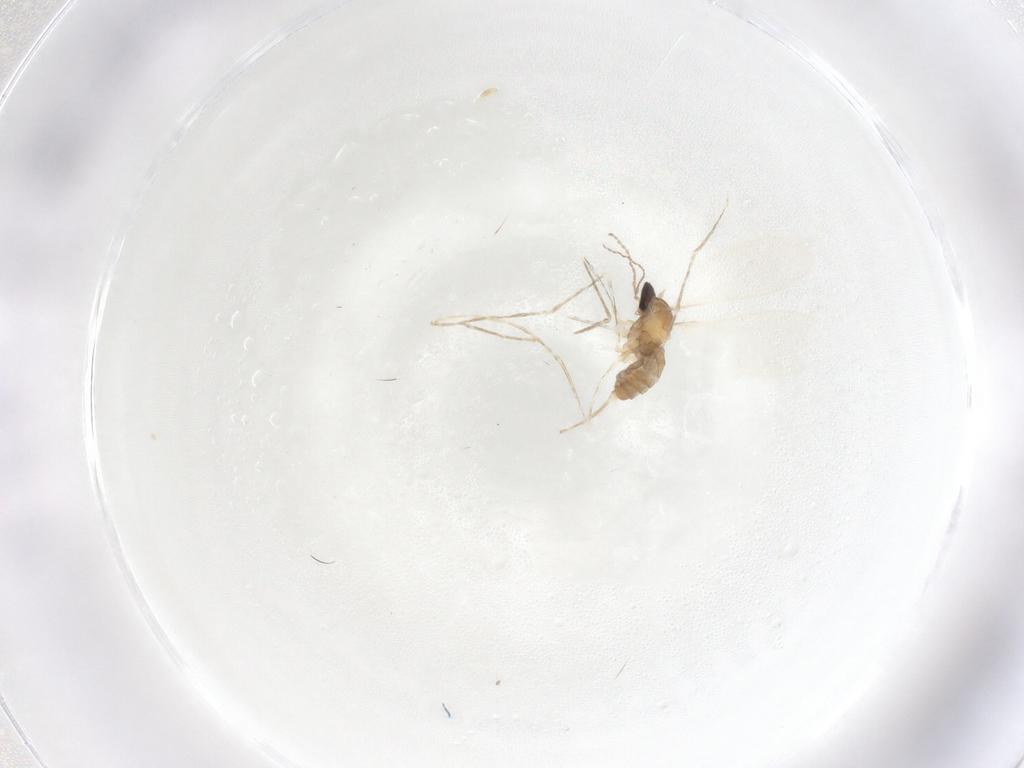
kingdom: Animalia
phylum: Arthropoda
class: Insecta
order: Diptera
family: Cecidomyiidae
